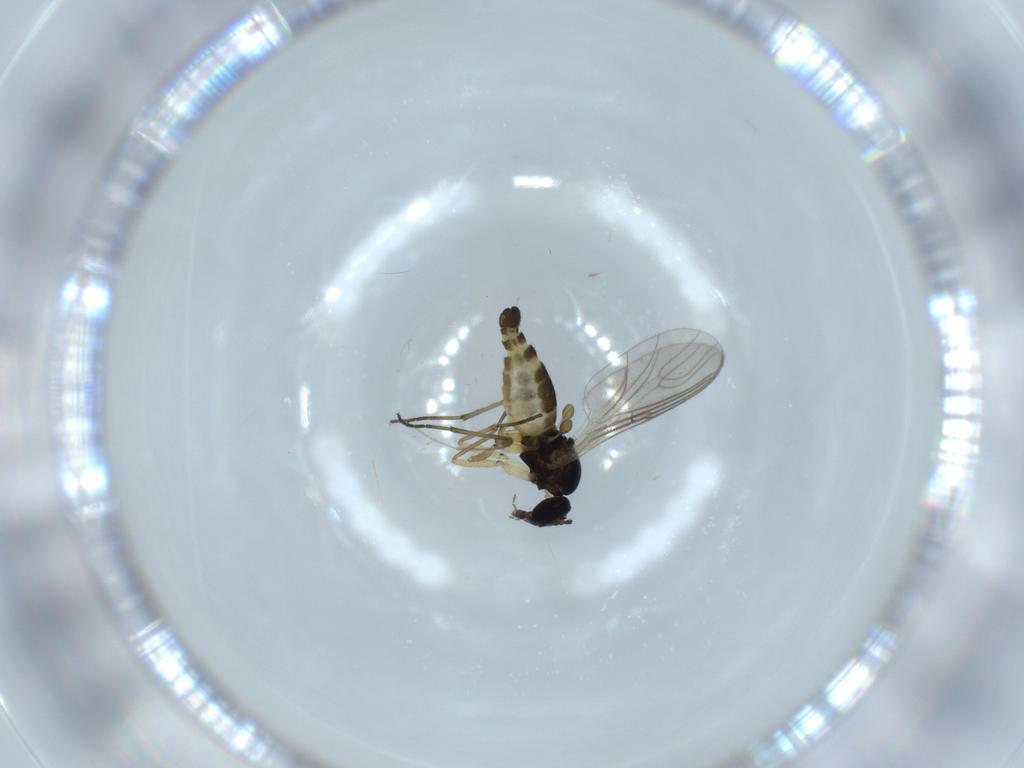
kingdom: Animalia
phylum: Arthropoda
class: Insecta
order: Diptera
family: Sciaridae
